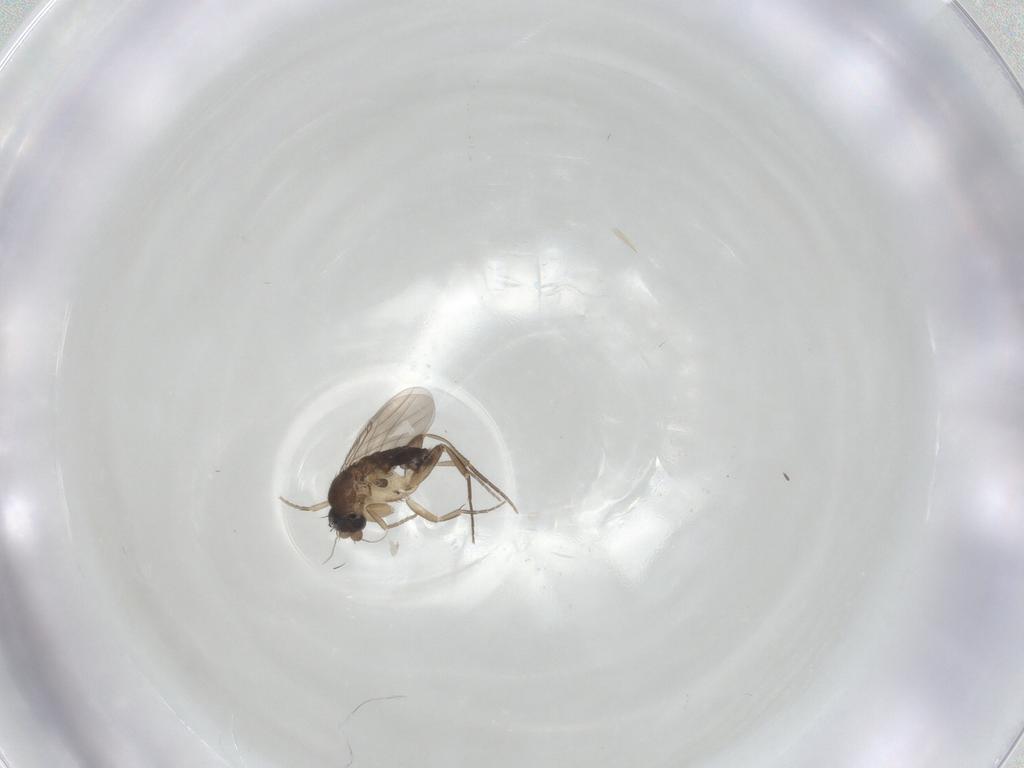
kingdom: Animalia
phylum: Arthropoda
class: Insecta
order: Diptera
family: Phoridae
